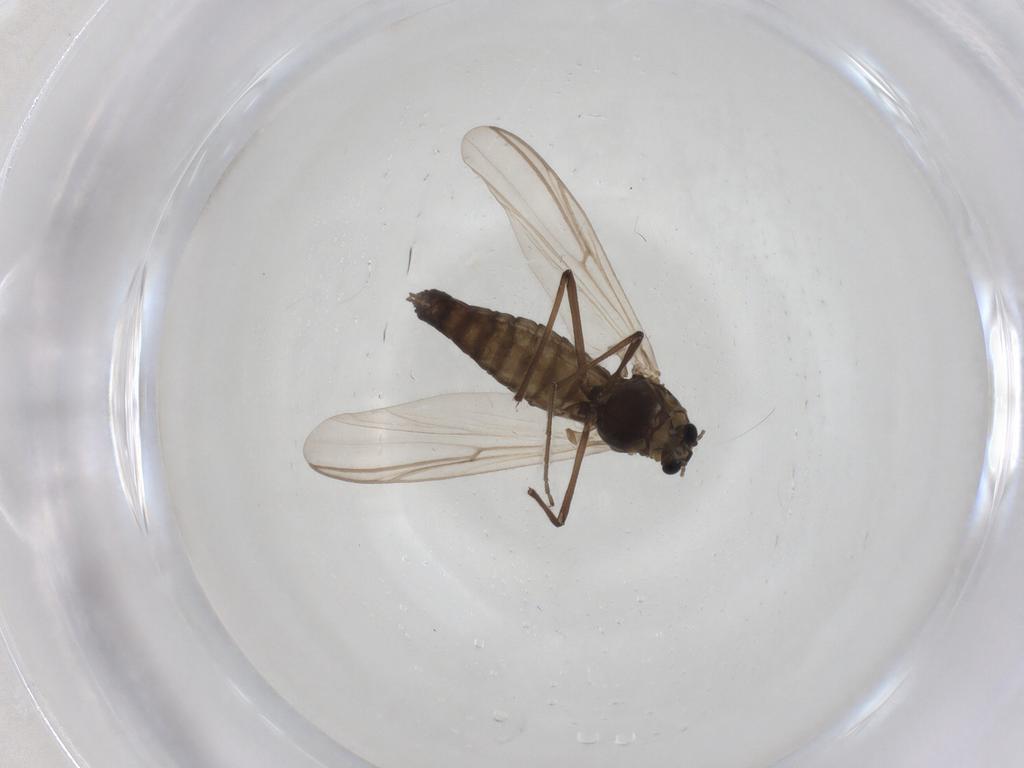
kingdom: Animalia
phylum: Arthropoda
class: Insecta
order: Diptera
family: Chironomidae
